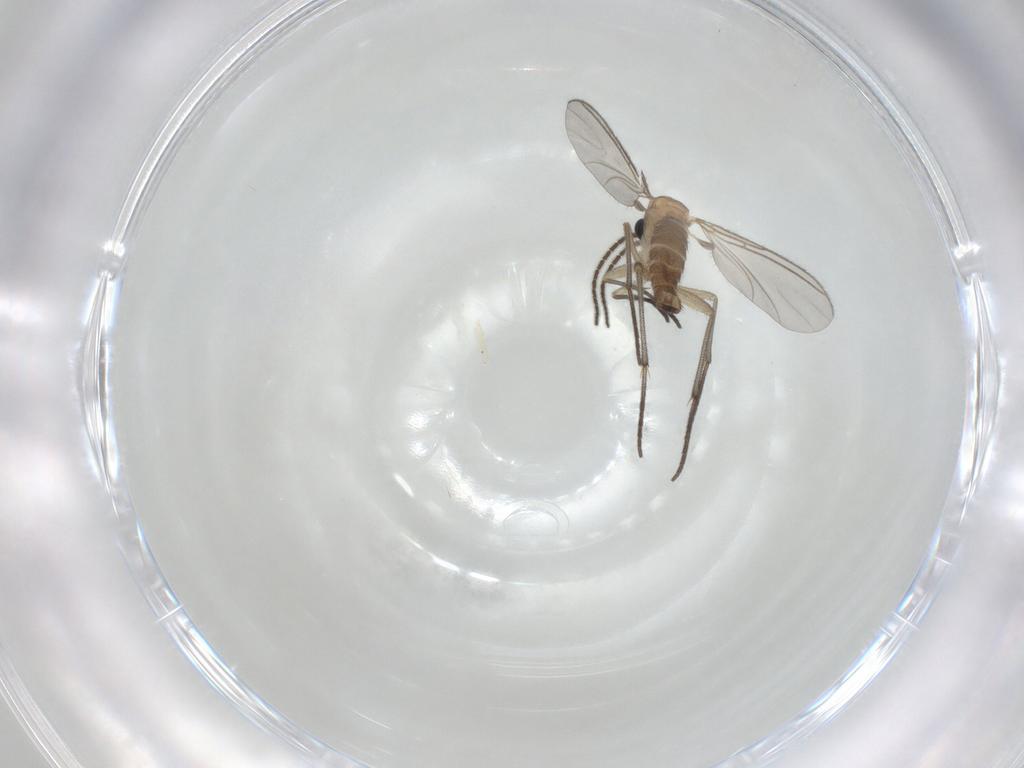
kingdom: Animalia
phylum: Arthropoda
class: Insecta
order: Diptera
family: Sciaridae
